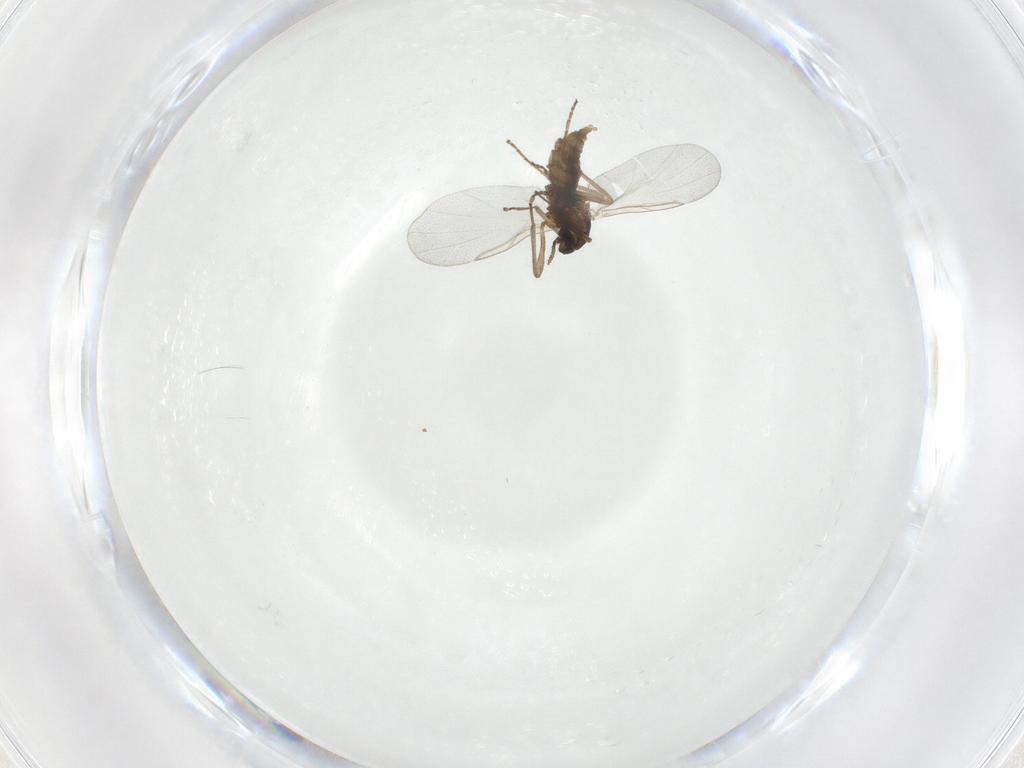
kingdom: Animalia
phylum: Arthropoda
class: Insecta
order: Diptera
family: Cecidomyiidae
